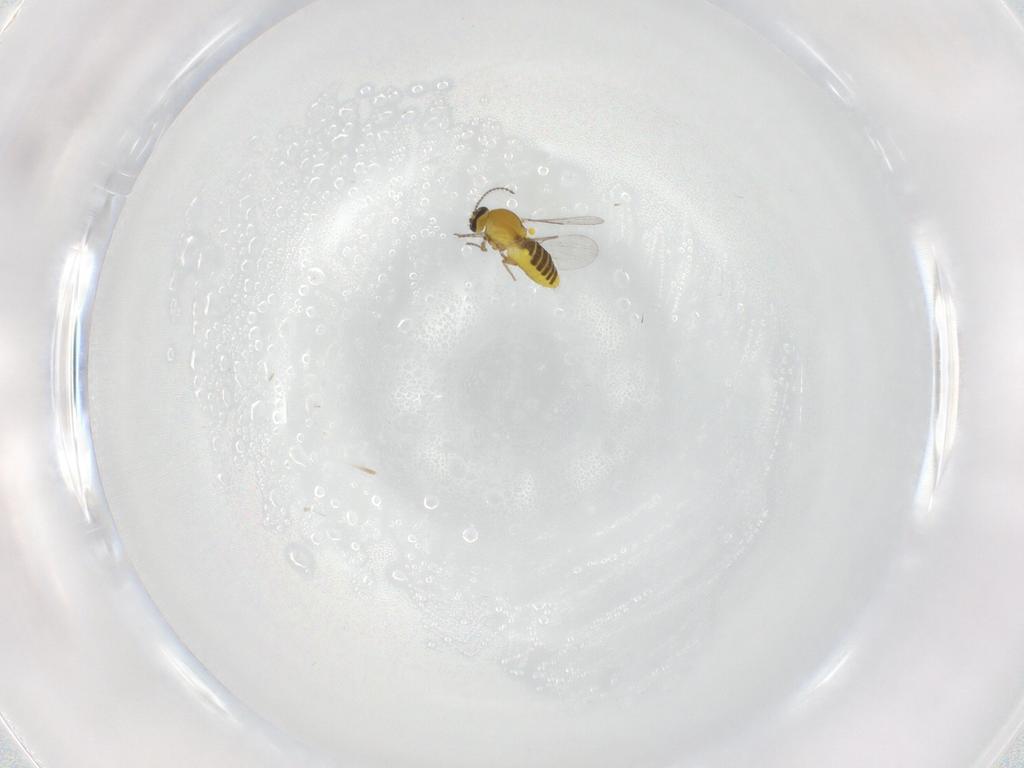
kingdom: Animalia
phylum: Arthropoda
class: Insecta
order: Diptera
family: Ceratopogonidae
